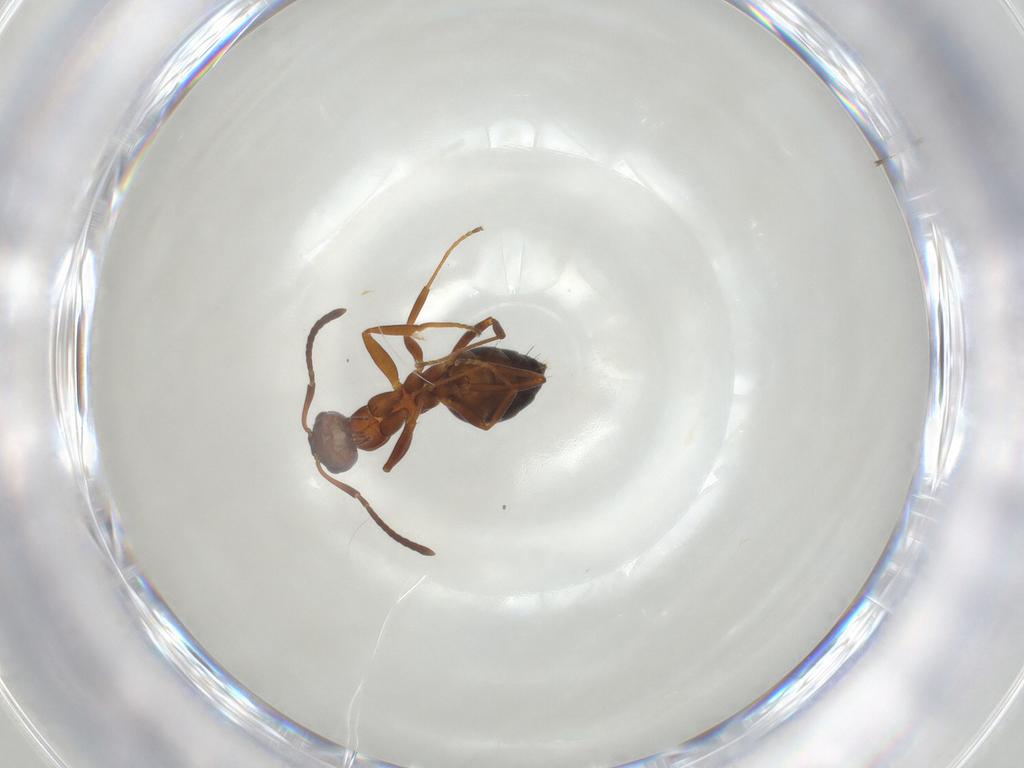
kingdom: Animalia
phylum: Arthropoda
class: Insecta
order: Hymenoptera
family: Formicidae
